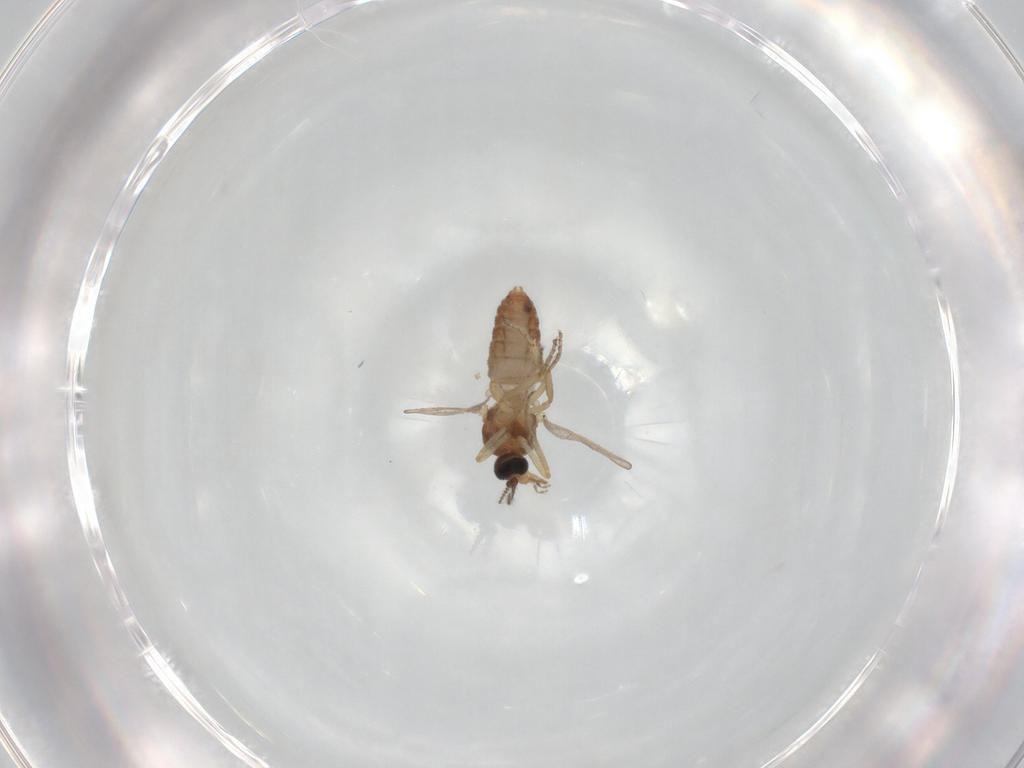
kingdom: Animalia
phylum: Arthropoda
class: Insecta
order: Diptera
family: Ceratopogonidae
